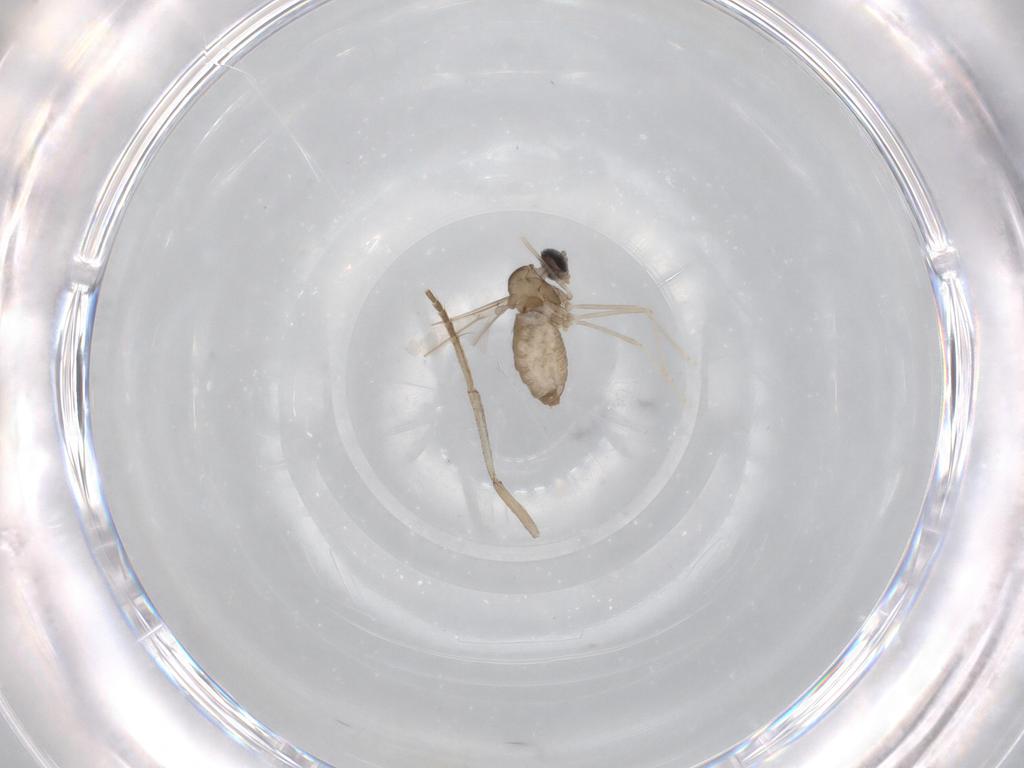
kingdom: Animalia
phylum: Arthropoda
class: Insecta
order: Diptera
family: Cecidomyiidae
